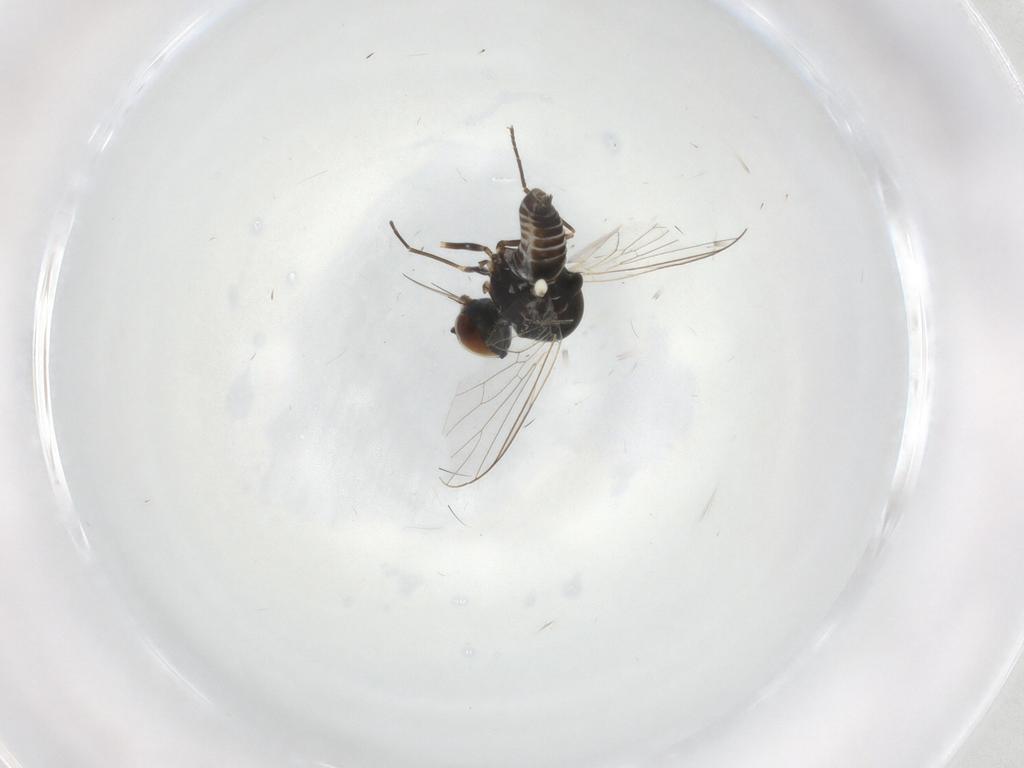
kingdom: Animalia
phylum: Arthropoda
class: Insecta
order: Diptera
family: Bombyliidae
